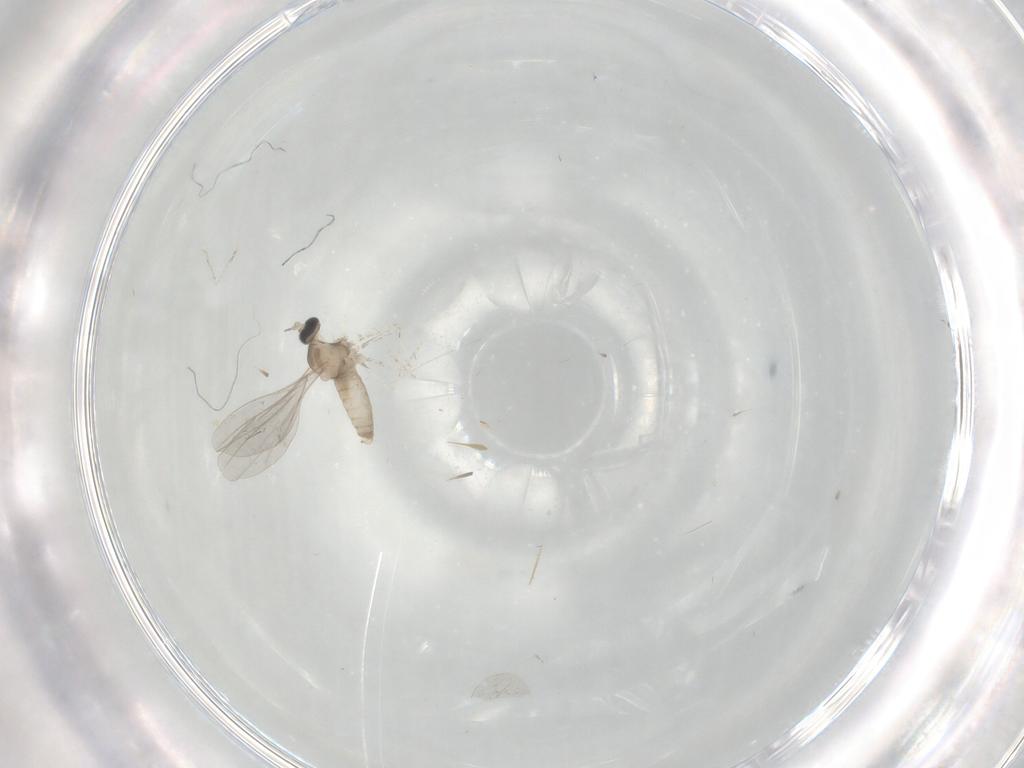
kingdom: Animalia
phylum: Arthropoda
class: Insecta
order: Diptera
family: Cecidomyiidae
